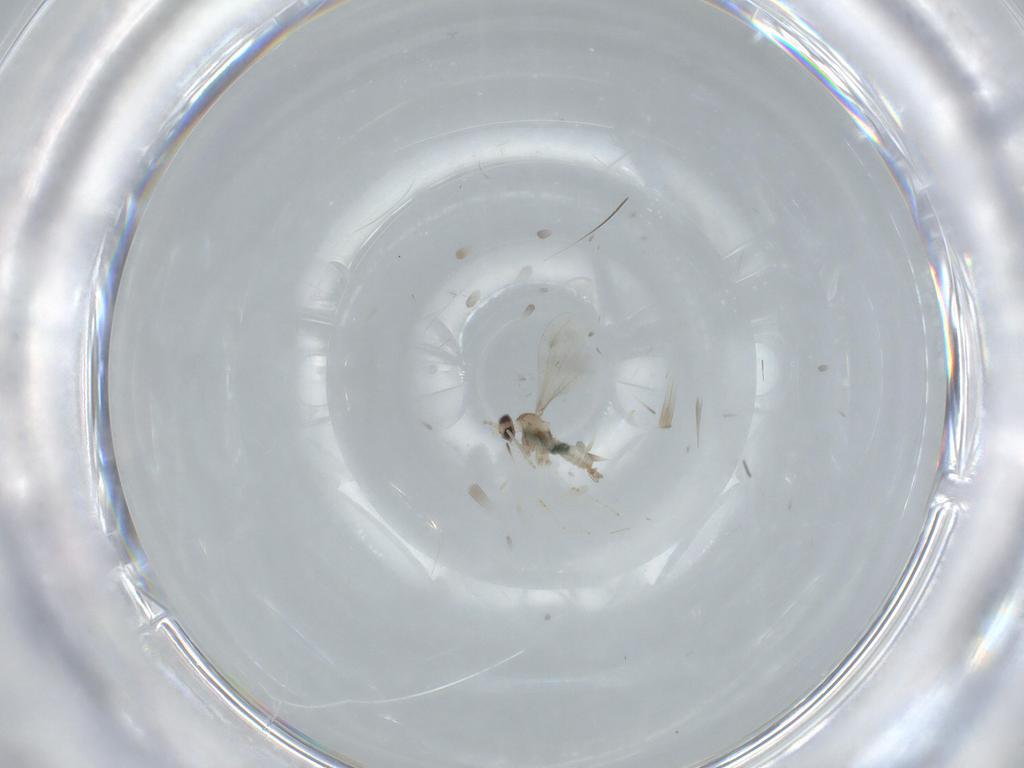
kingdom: Animalia
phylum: Arthropoda
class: Insecta
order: Diptera
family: Cecidomyiidae
